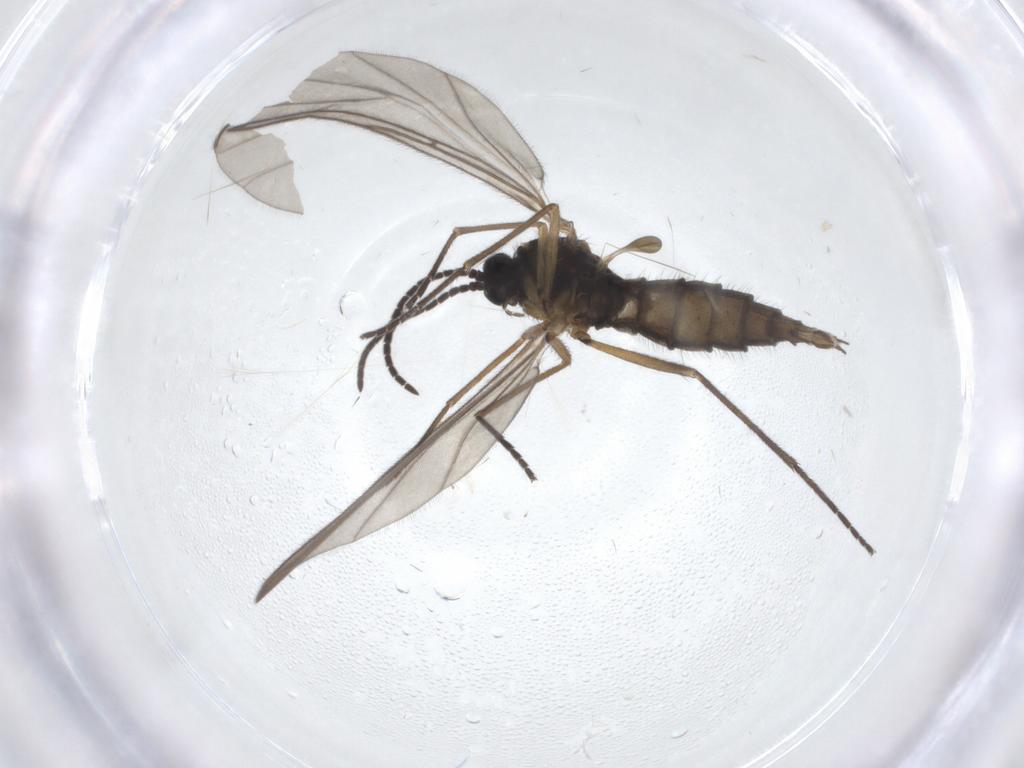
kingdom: Animalia
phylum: Arthropoda
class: Insecta
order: Diptera
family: Sciaridae
